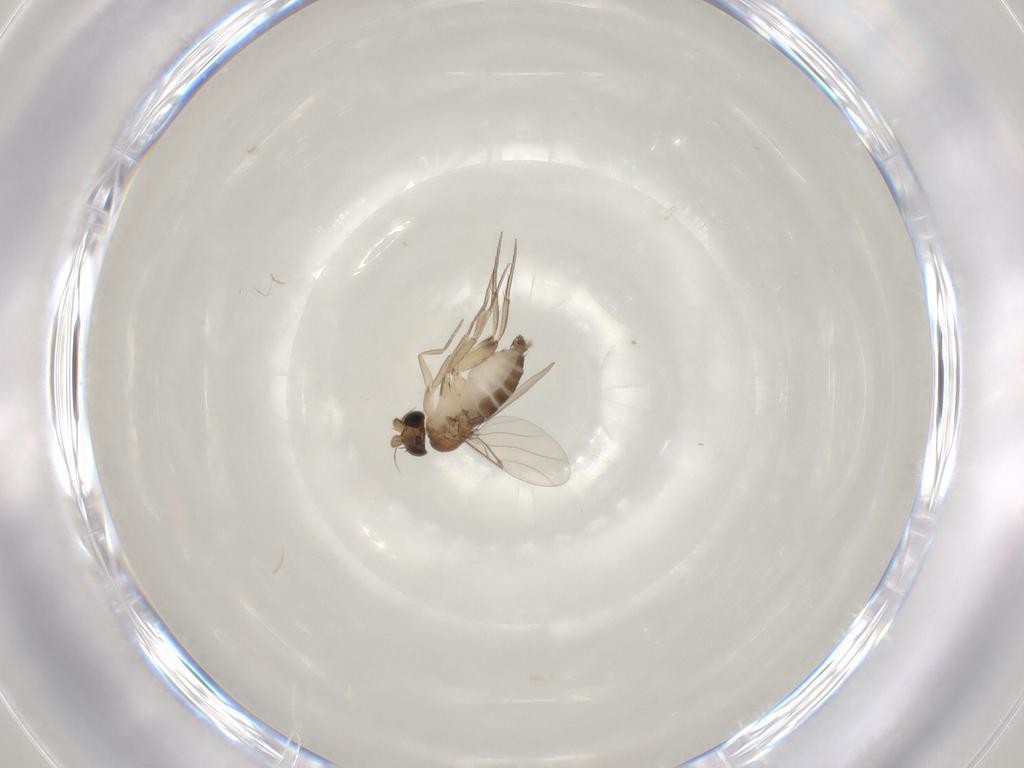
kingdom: Animalia
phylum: Arthropoda
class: Insecta
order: Diptera
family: Phoridae
